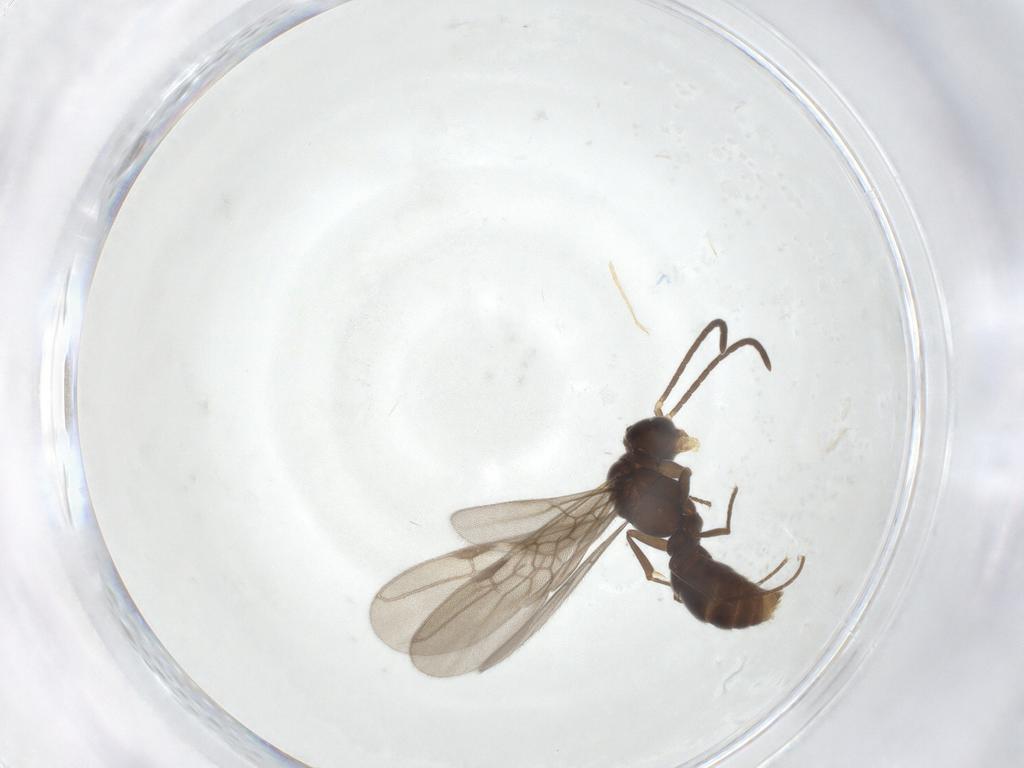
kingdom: Animalia
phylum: Arthropoda
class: Insecta
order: Hymenoptera
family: Formicidae
